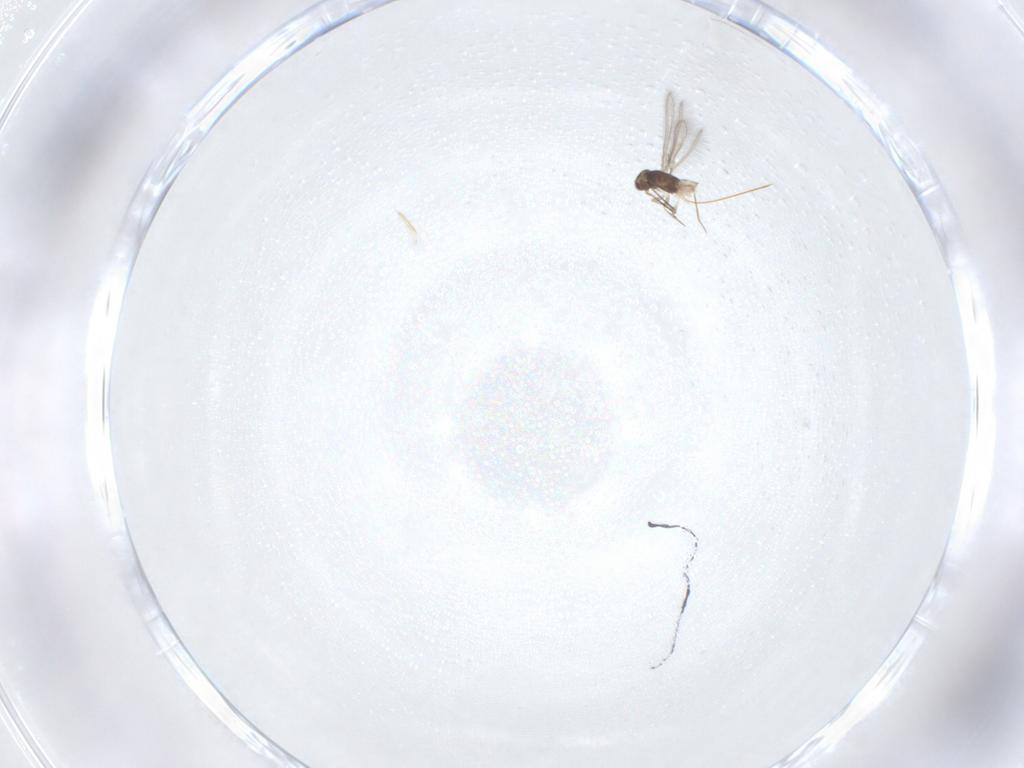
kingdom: Animalia
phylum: Arthropoda
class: Insecta
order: Hymenoptera
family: Mymaridae
